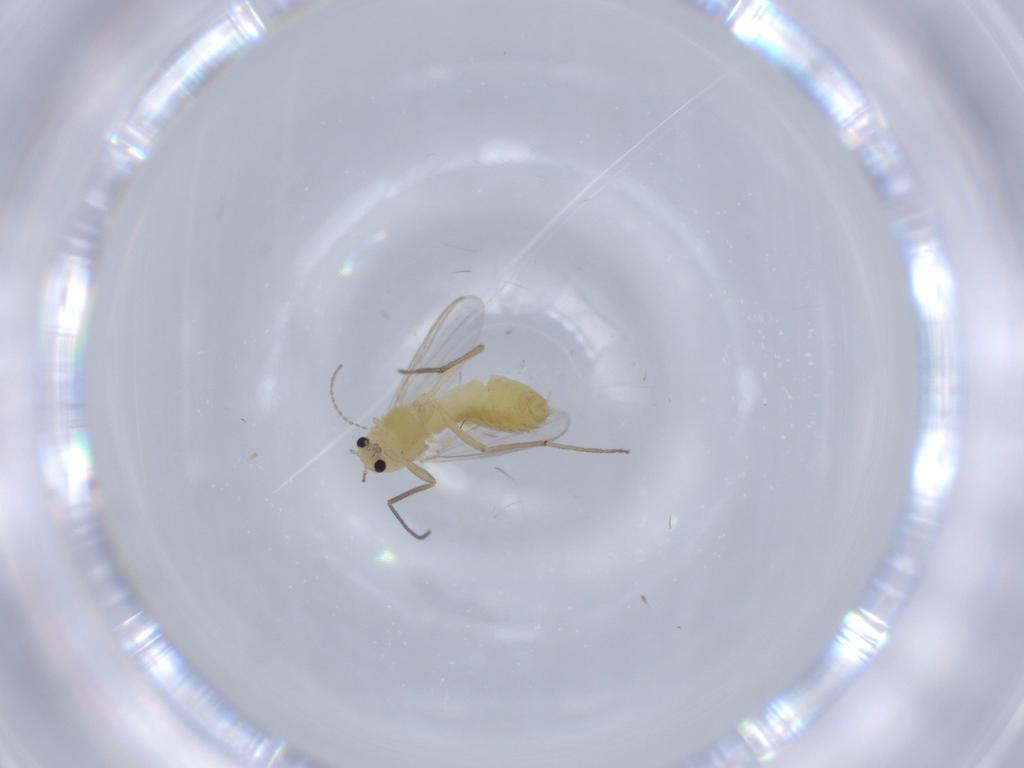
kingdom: Animalia
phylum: Arthropoda
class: Insecta
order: Diptera
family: Chironomidae
